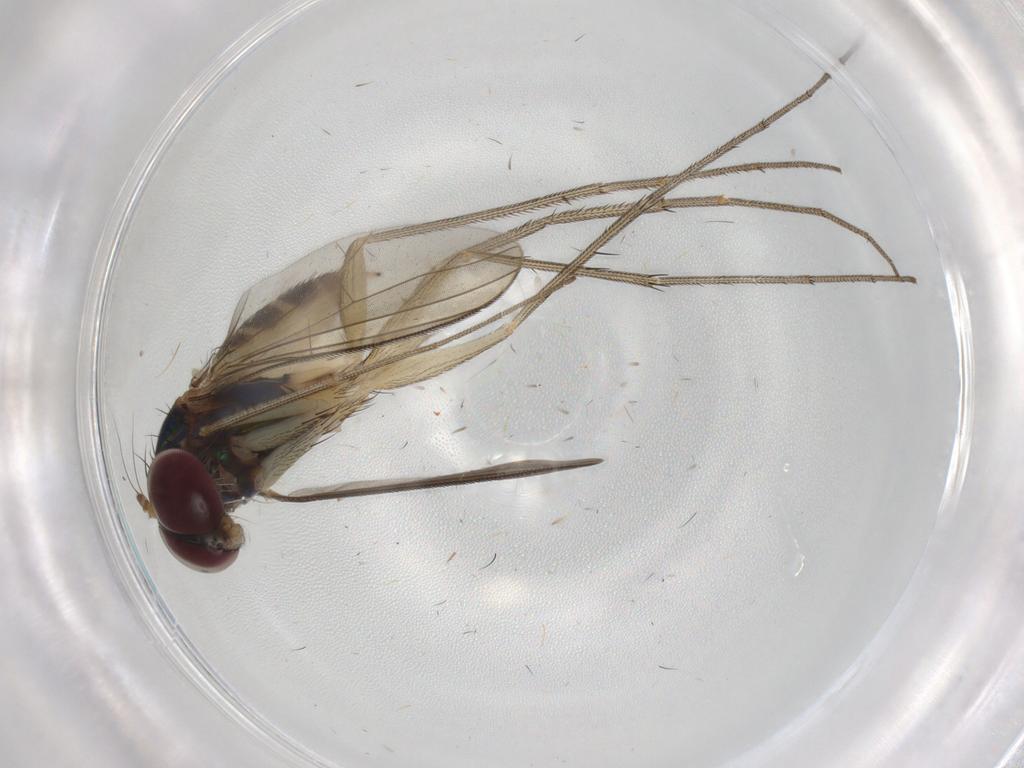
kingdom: Animalia
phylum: Arthropoda
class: Insecta
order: Diptera
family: Dolichopodidae
